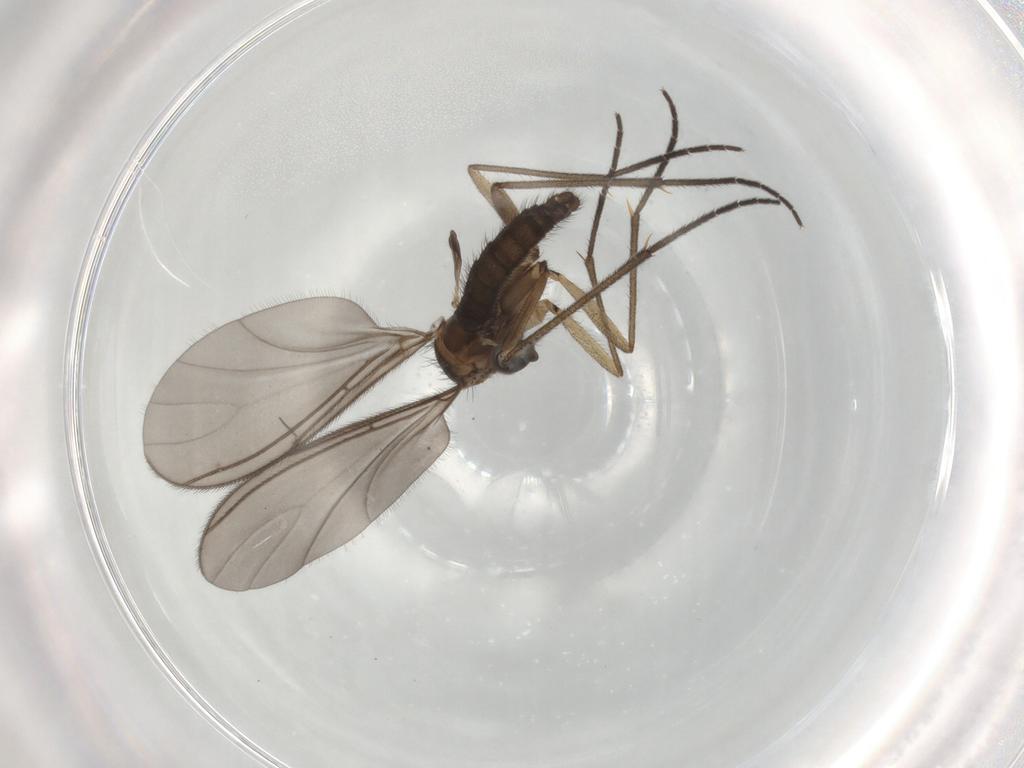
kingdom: Animalia
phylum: Arthropoda
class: Insecta
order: Diptera
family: Sciaridae
